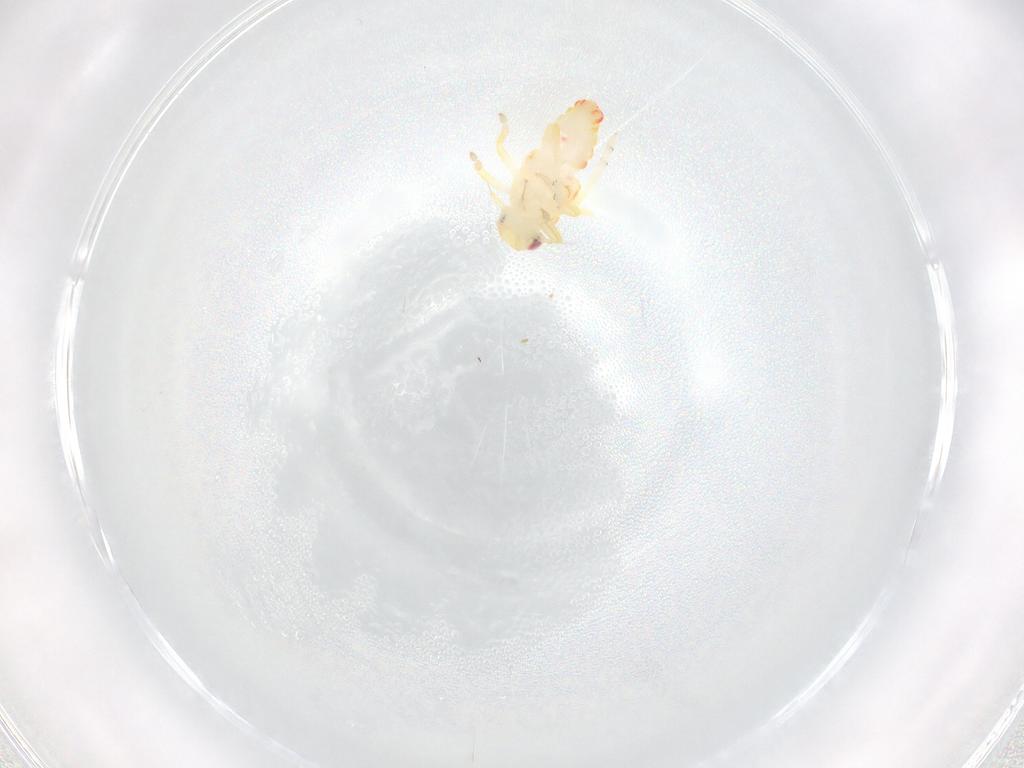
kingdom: Animalia
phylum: Arthropoda
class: Insecta
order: Hemiptera
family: Tropiduchidae
